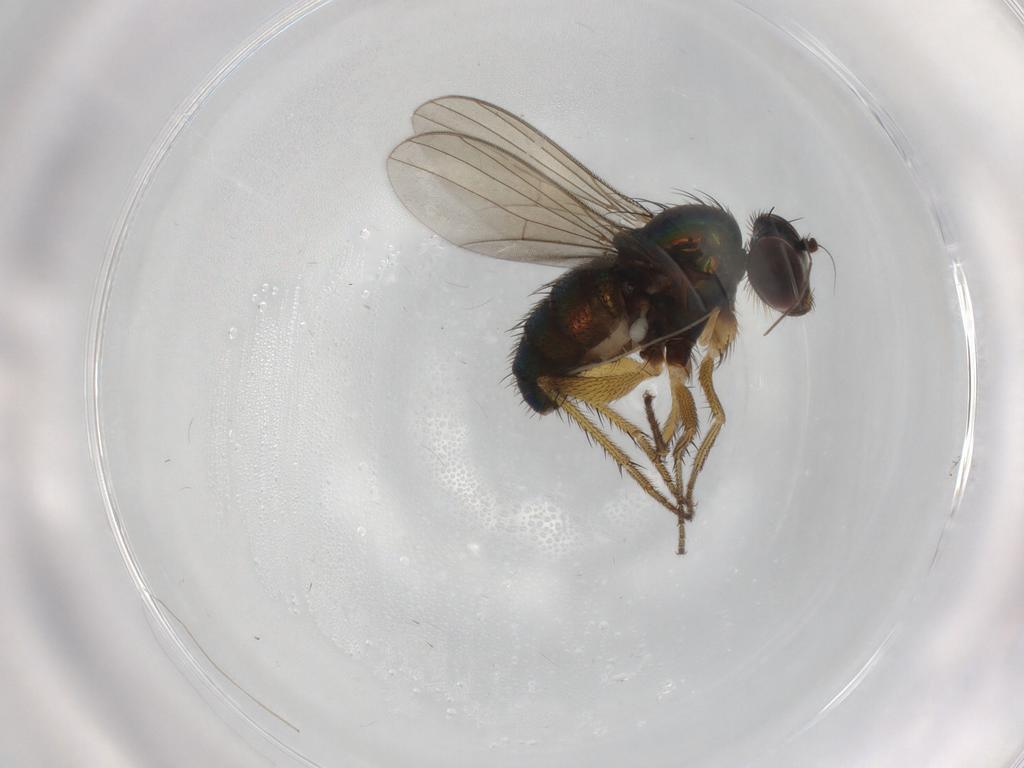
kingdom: Animalia
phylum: Arthropoda
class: Insecta
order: Diptera
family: Dolichopodidae
